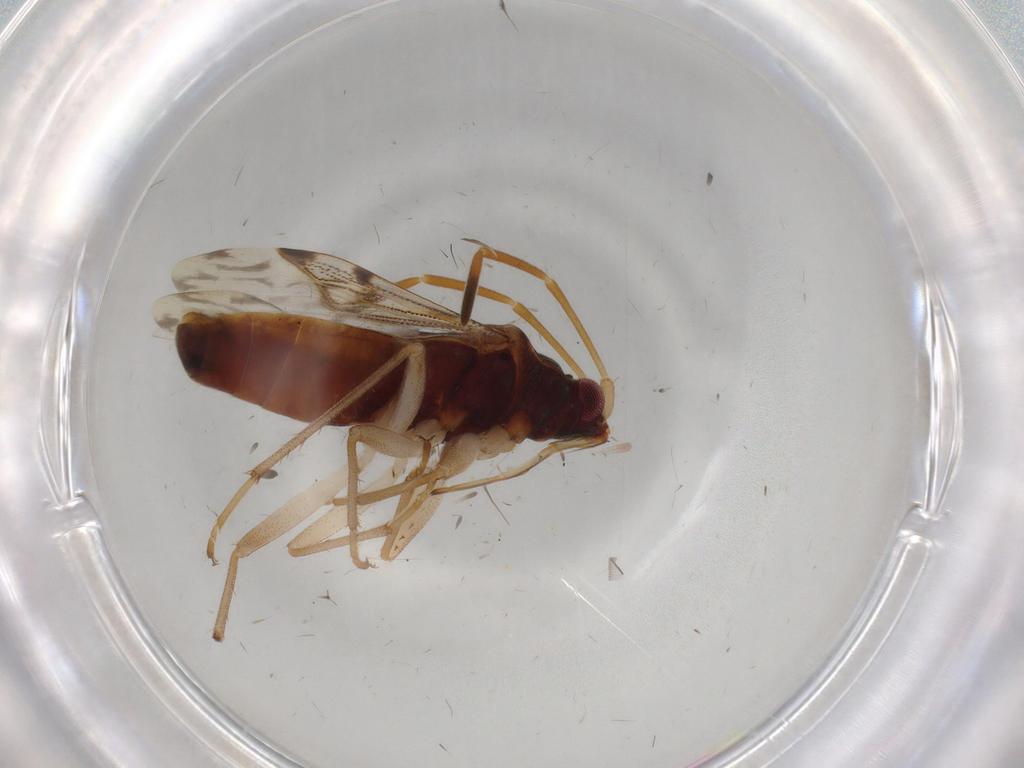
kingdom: Animalia
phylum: Arthropoda
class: Insecta
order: Hemiptera
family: Rhyparochromidae
